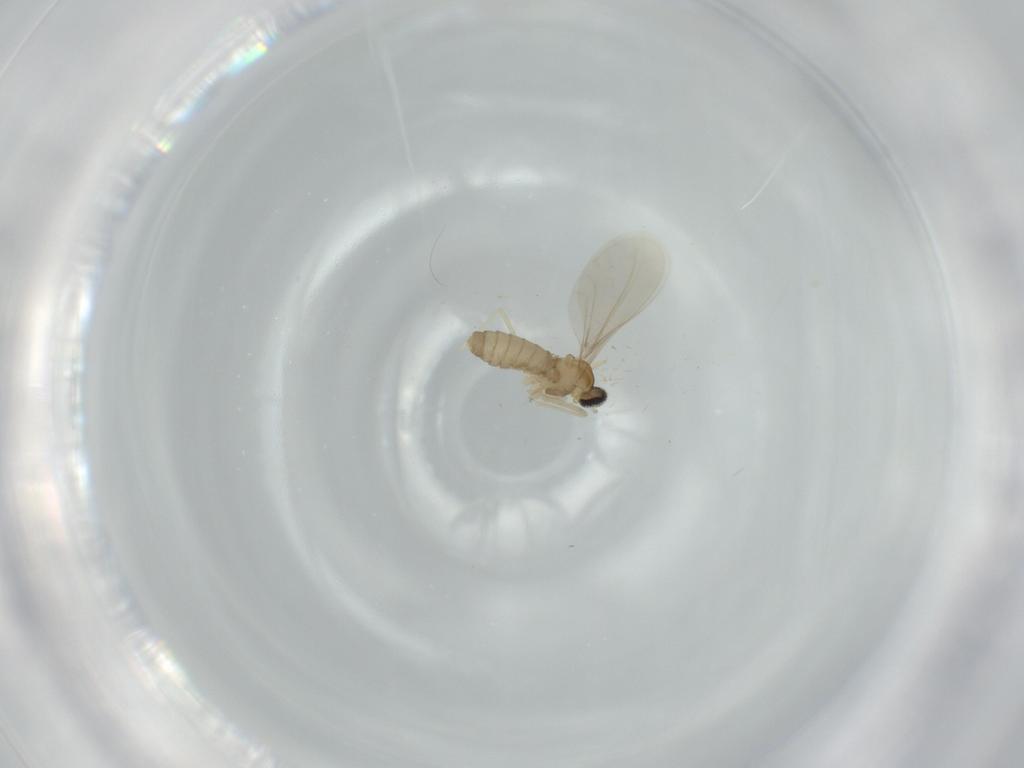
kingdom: Animalia
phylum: Arthropoda
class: Insecta
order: Diptera
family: Cecidomyiidae
